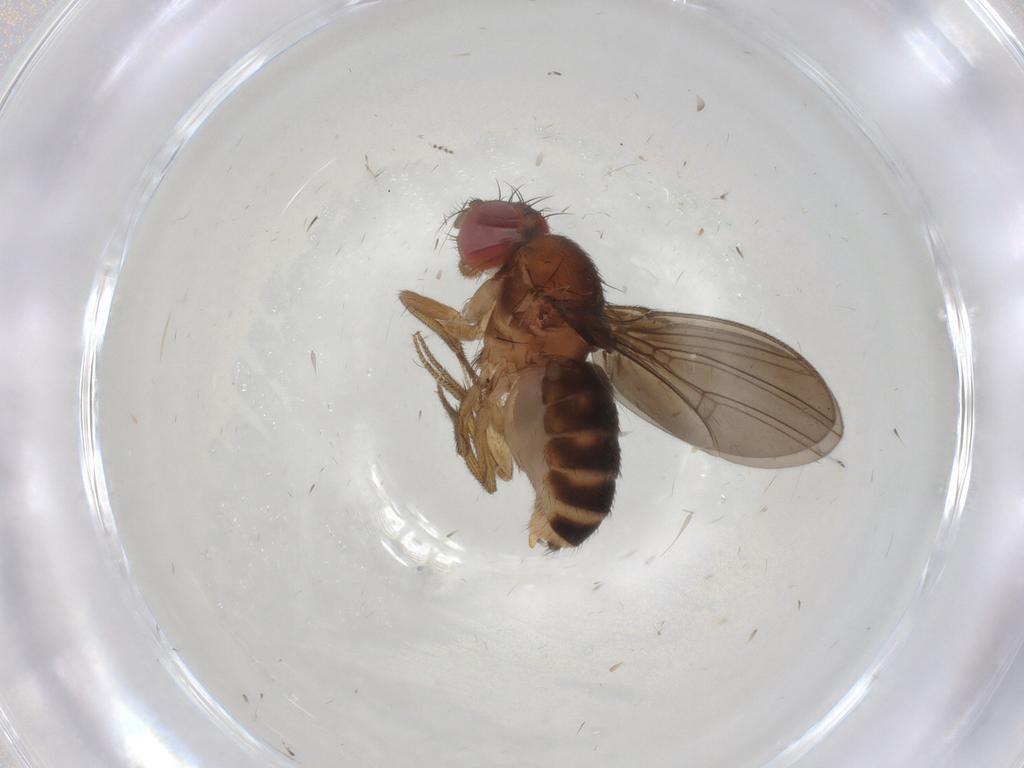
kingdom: Animalia
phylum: Arthropoda
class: Insecta
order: Diptera
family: Drosophilidae
